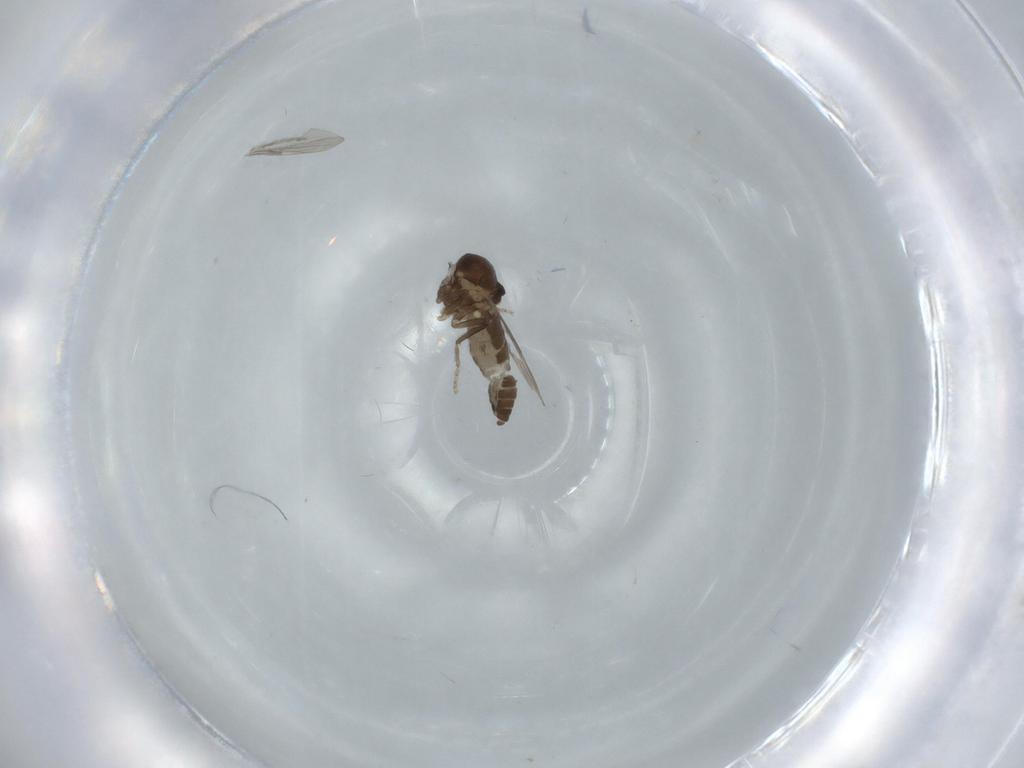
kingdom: Animalia
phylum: Arthropoda
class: Insecta
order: Diptera
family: Ceratopogonidae
